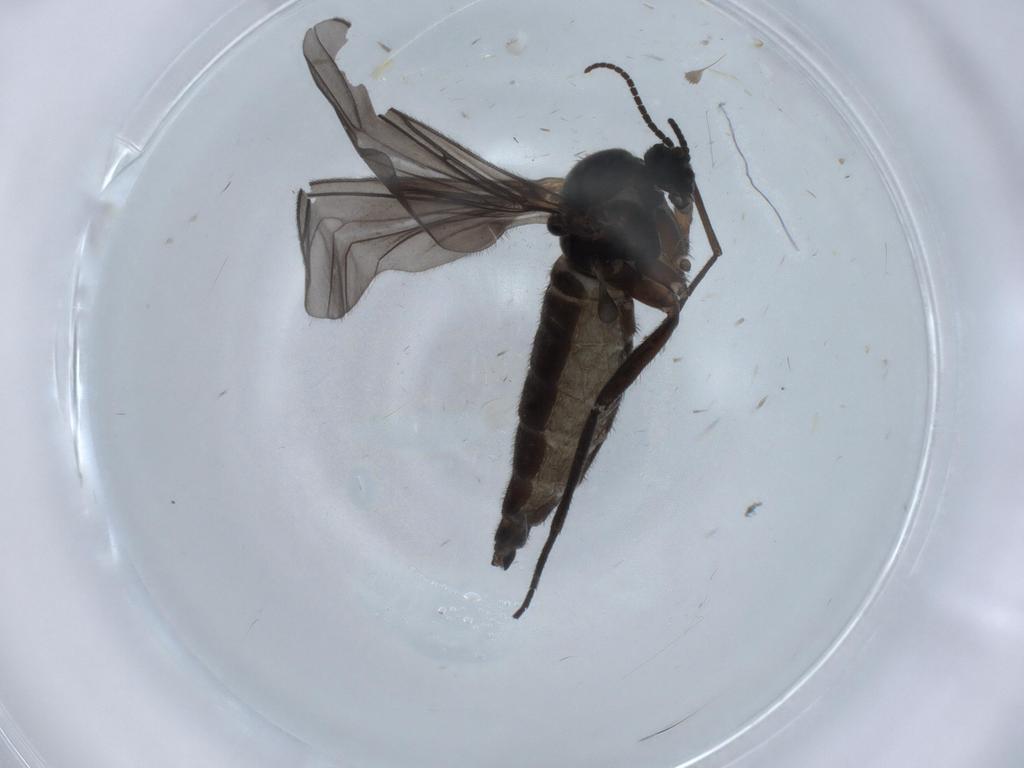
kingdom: Animalia
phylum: Arthropoda
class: Insecta
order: Diptera
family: Sciaridae
